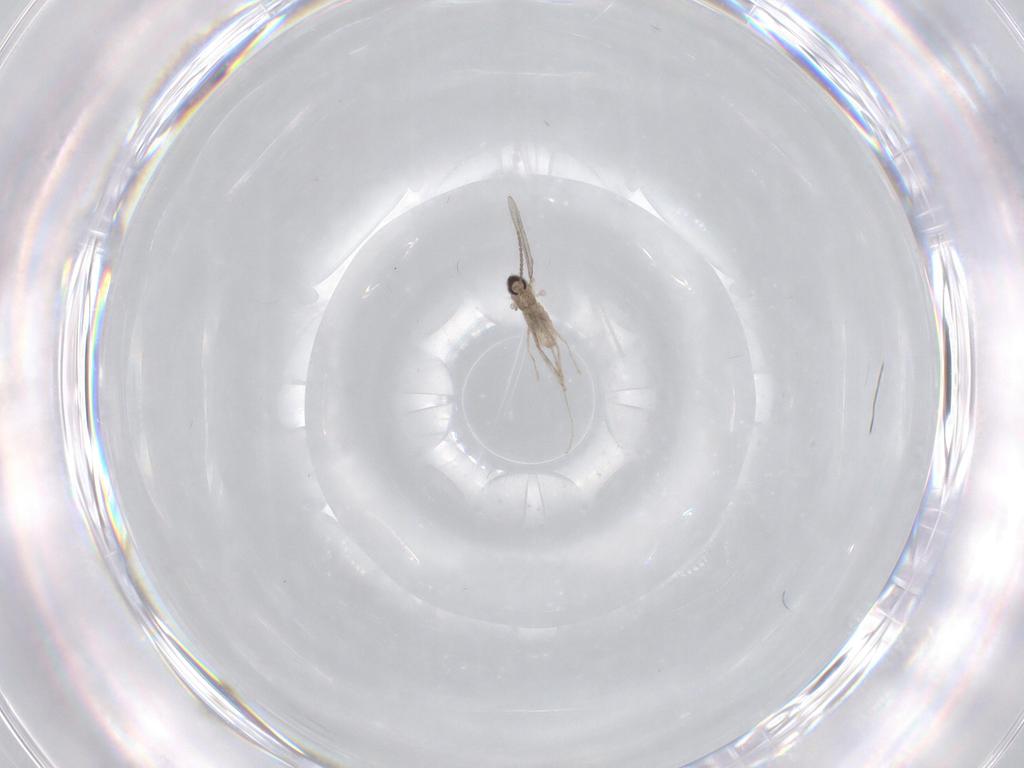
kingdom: Animalia
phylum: Arthropoda
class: Insecta
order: Diptera
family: Cecidomyiidae
